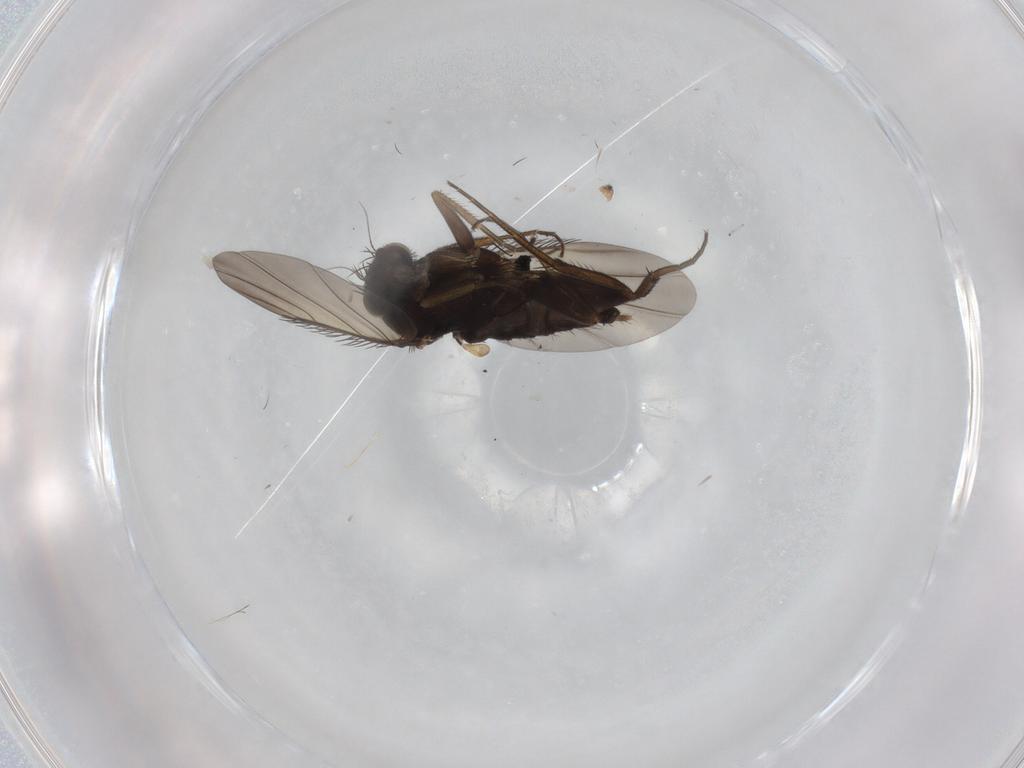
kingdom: Animalia
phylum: Arthropoda
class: Insecta
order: Diptera
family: Phoridae
